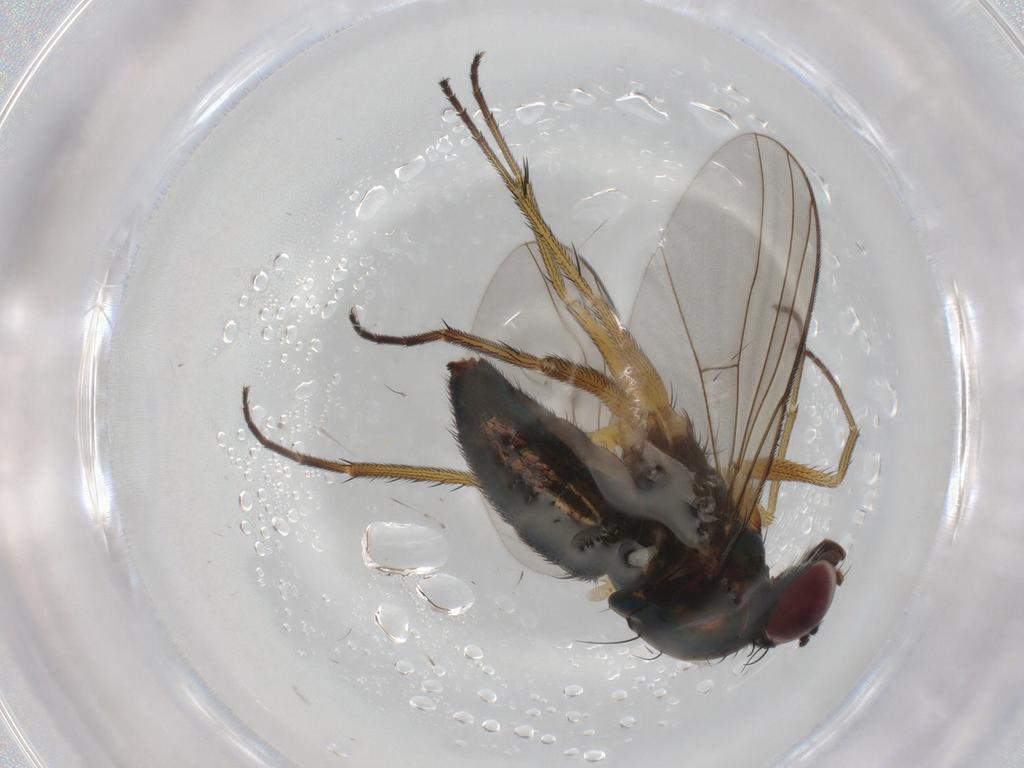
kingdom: Animalia
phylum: Arthropoda
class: Insecta
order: Diptera
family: Dolichopodidae
